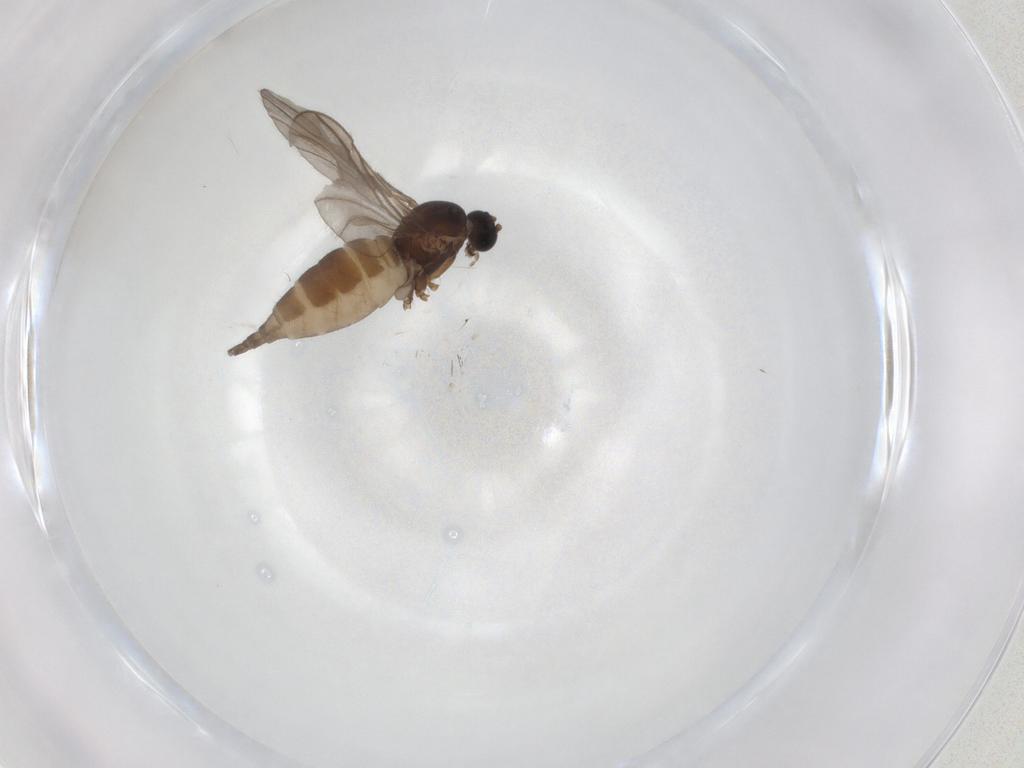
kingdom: Animalia
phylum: Arthropoda
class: Insecta
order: Diptera
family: Sciaridae
